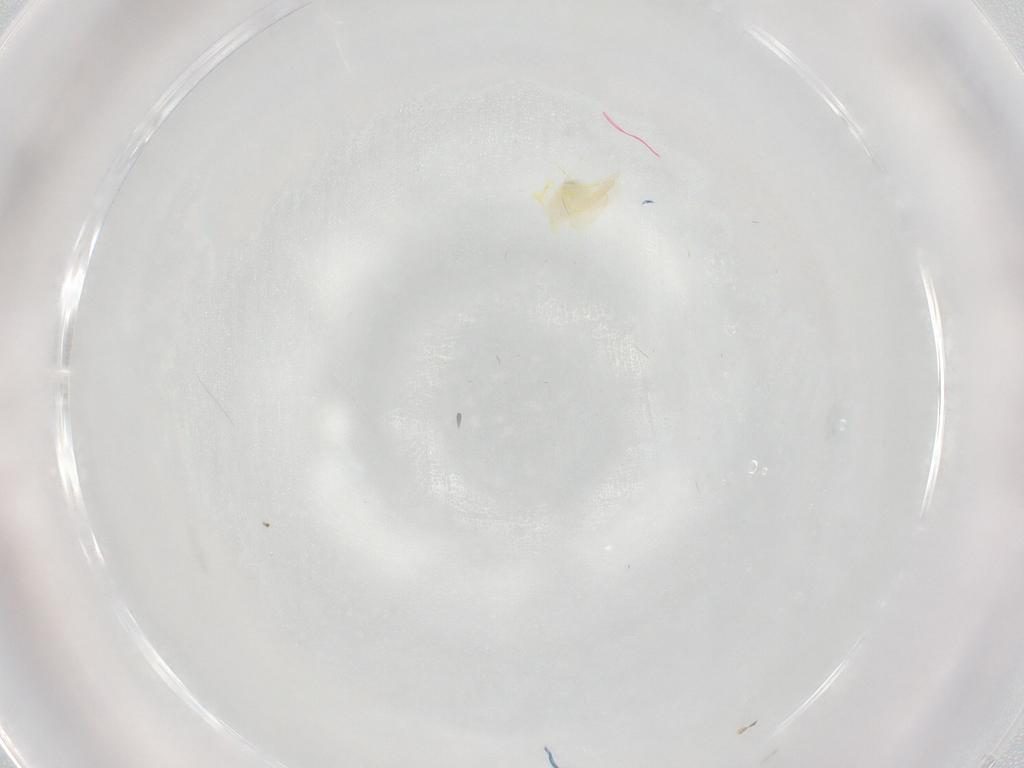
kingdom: Animalia
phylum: Arthropoda
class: Insecta
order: Hemiptera
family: Aleyrodidae
